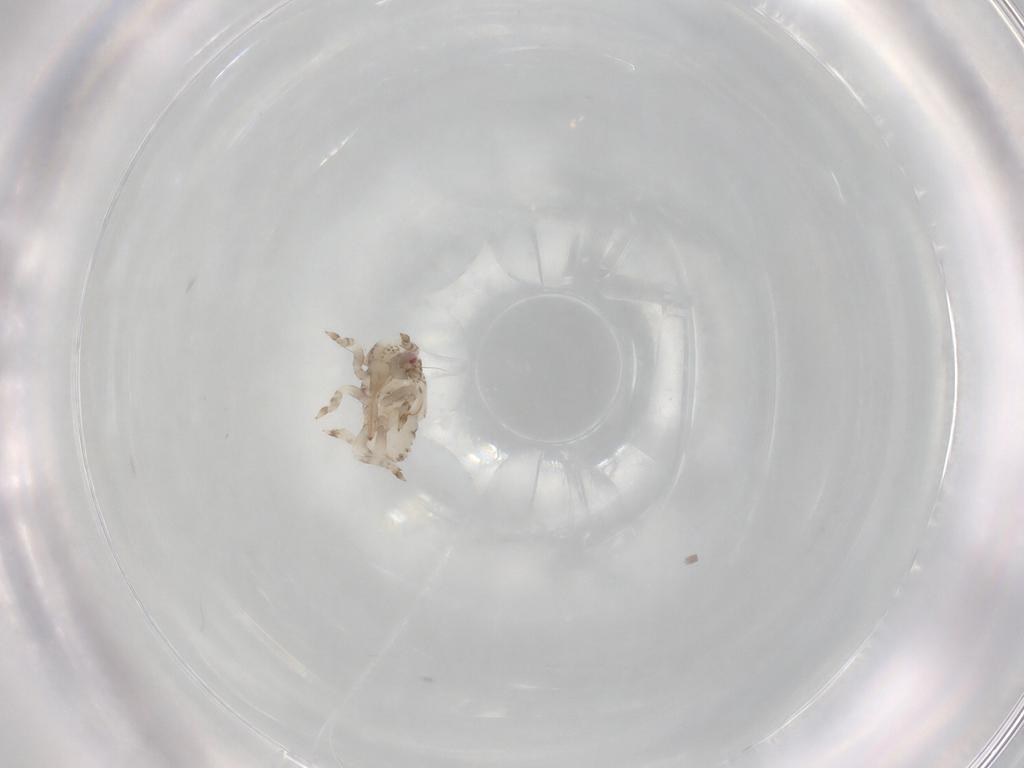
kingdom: Animalia
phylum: Arthropoda
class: Insecta
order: Hemiptera
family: Acanaloniidae
